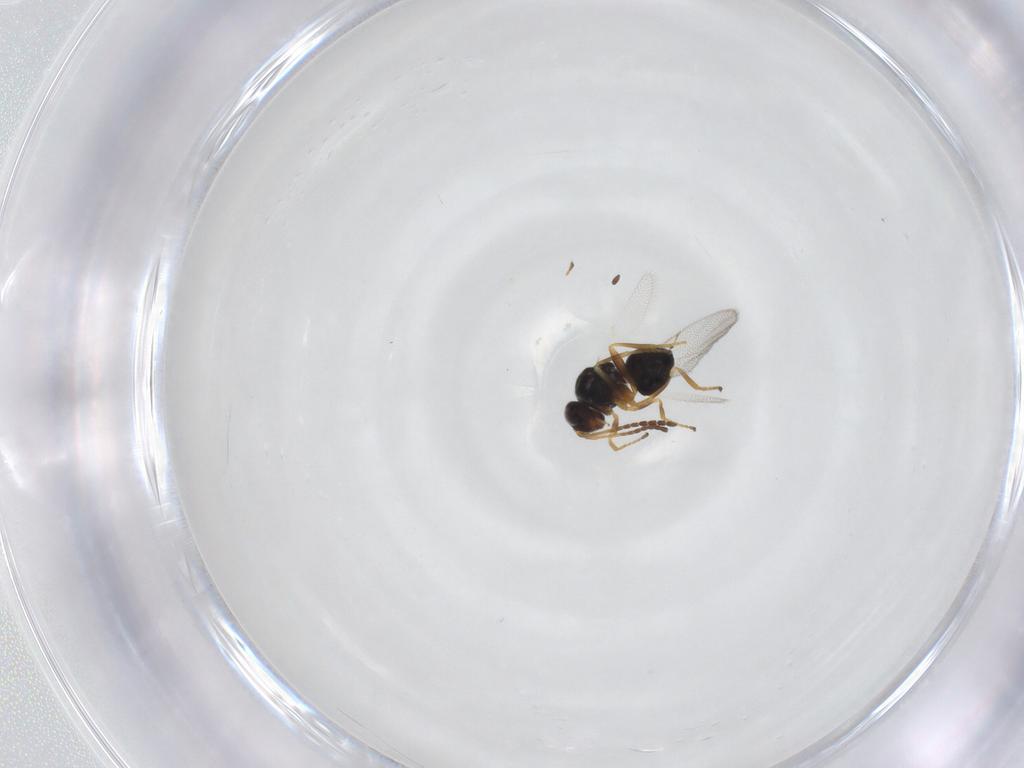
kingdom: Animalia
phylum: Arthropoda
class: Insecta
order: Hymenoptera
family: Figitidae
